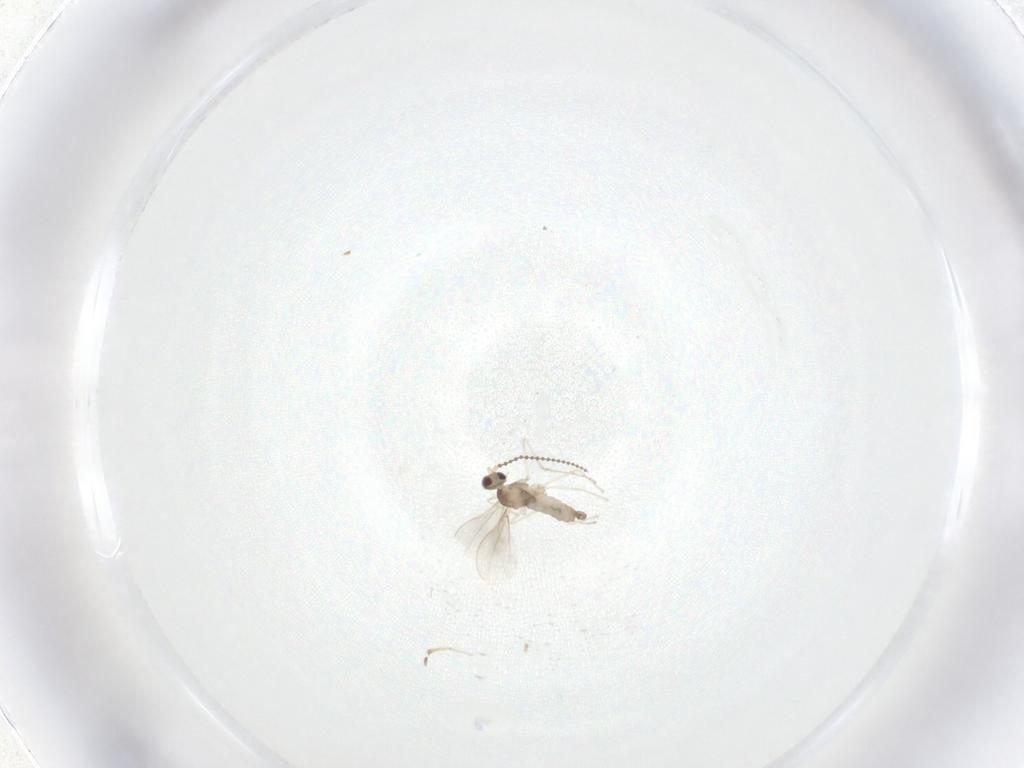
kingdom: Animalia
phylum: Arthropoda
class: Insecta
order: Diptera
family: Cecidomyiidae
